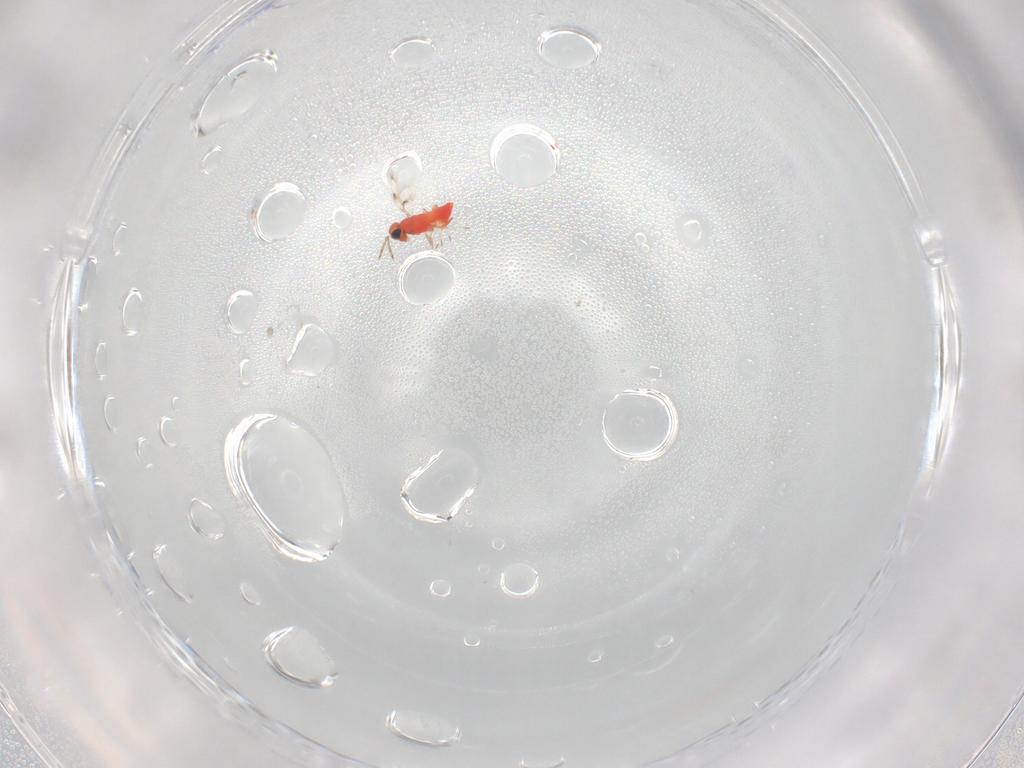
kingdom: Animalia
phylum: Arthropoda
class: Insecta
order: Hymenoptera
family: Trichogrammatidae
